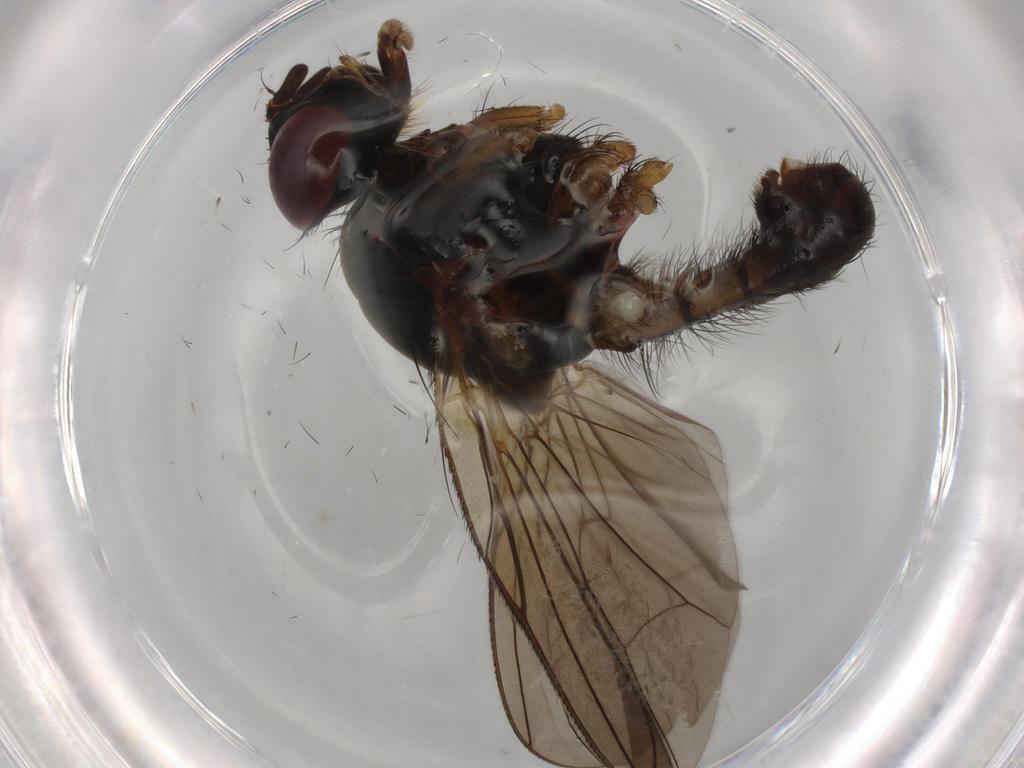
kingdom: Animalia
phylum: Arthropoda
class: Insecta
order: Diptera
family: Anthomyiidae
